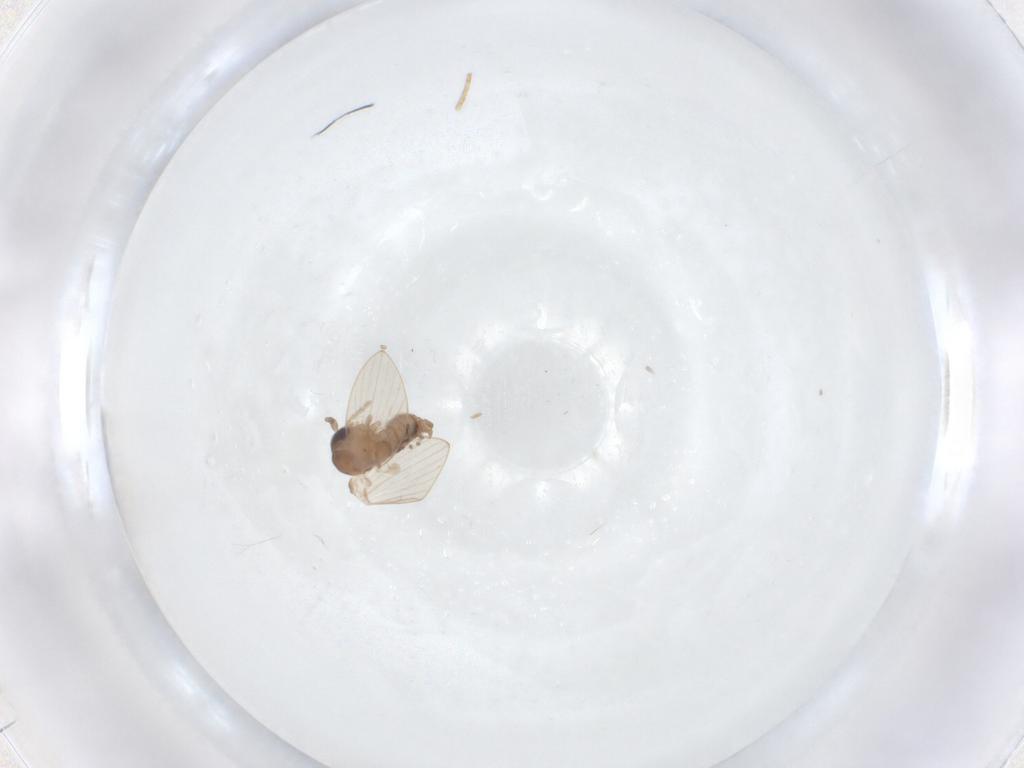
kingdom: Animalia
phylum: Arthropoda
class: Insecta
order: Diptera
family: Psychodidae
